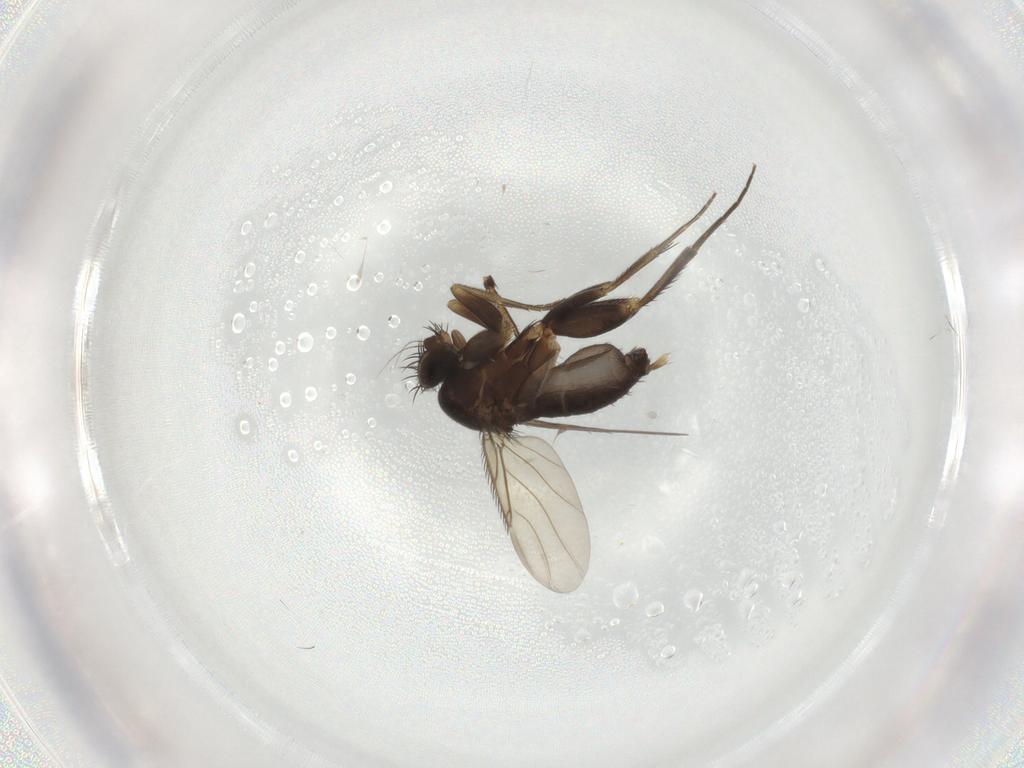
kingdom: Animalia
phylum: Arthropoda
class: Insecta
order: Diptera
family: Phoridae
